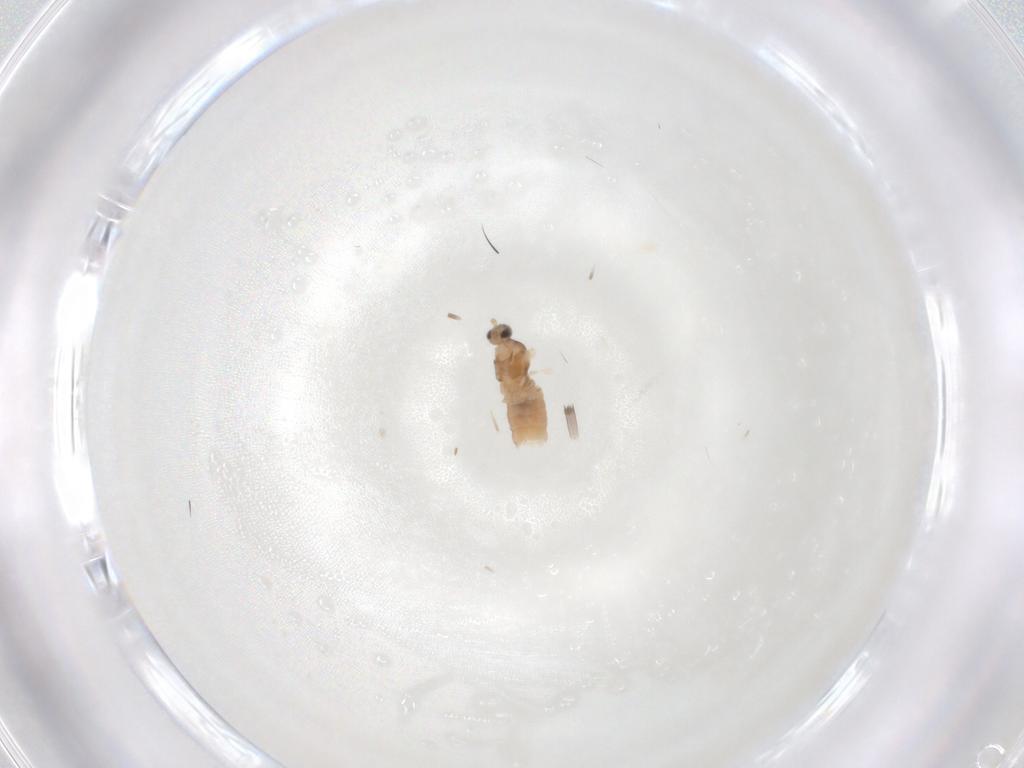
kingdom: Animalia
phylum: Arthropoda
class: Insecta
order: Diptera
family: Cecidomyiidae
